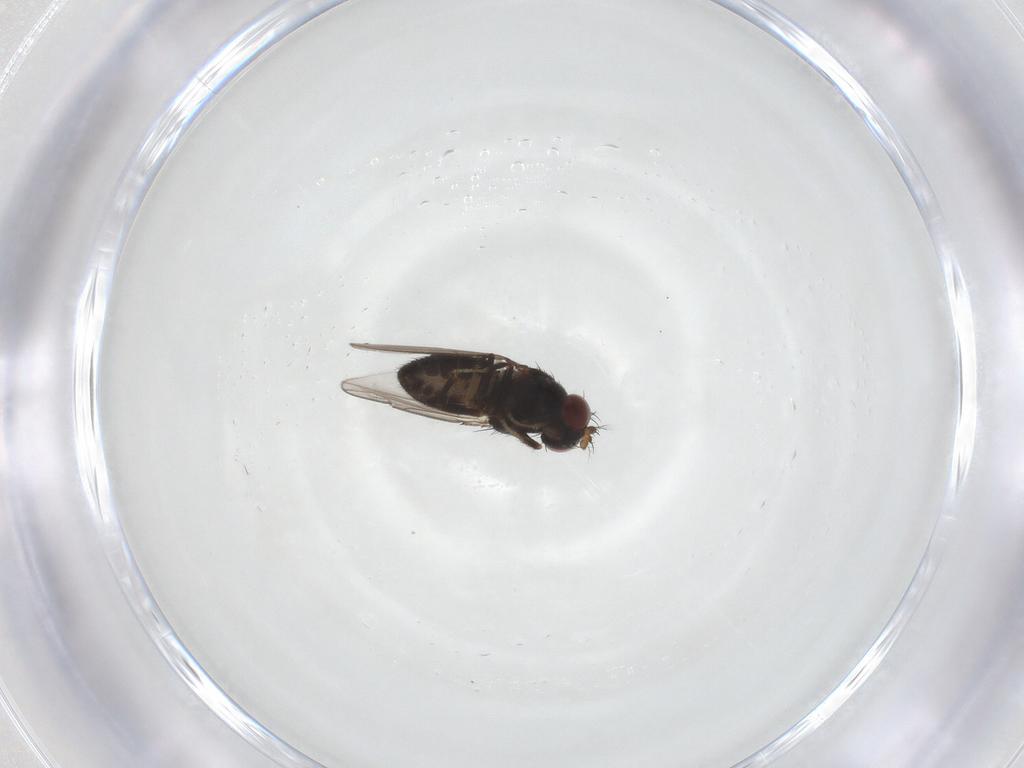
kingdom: Animalia
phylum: Arthropoda
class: Insecta
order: Diptera
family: Ephydridae
